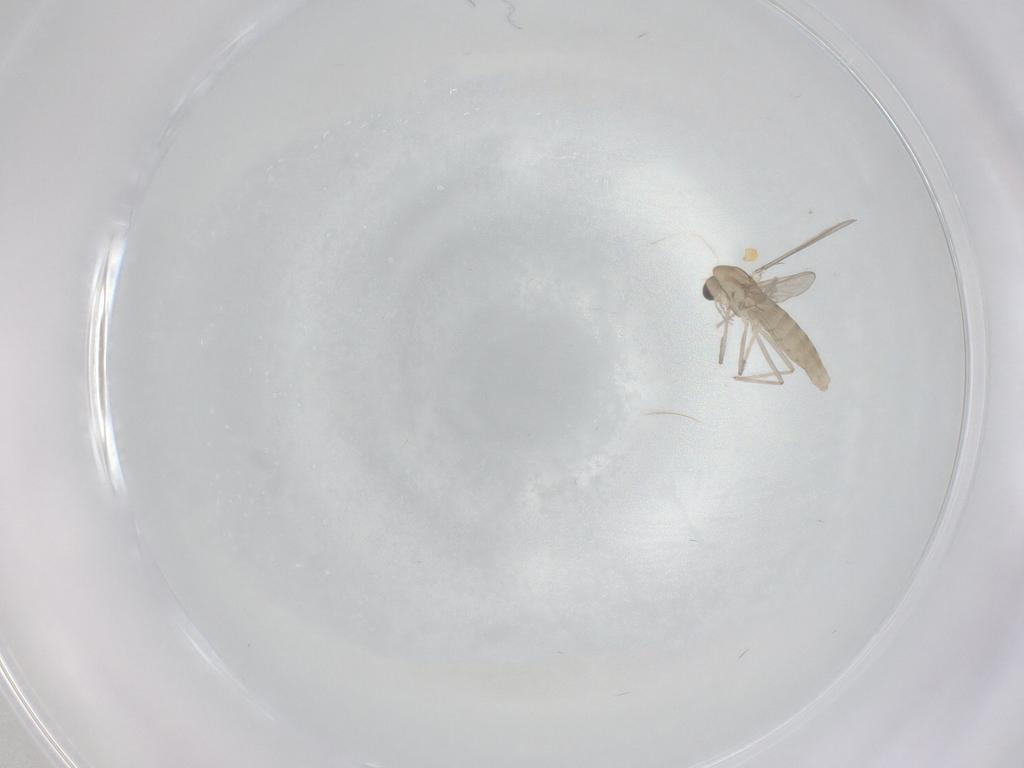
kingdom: Animalia
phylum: Arthropoda
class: Insecta
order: Diptera
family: Chironomidae
